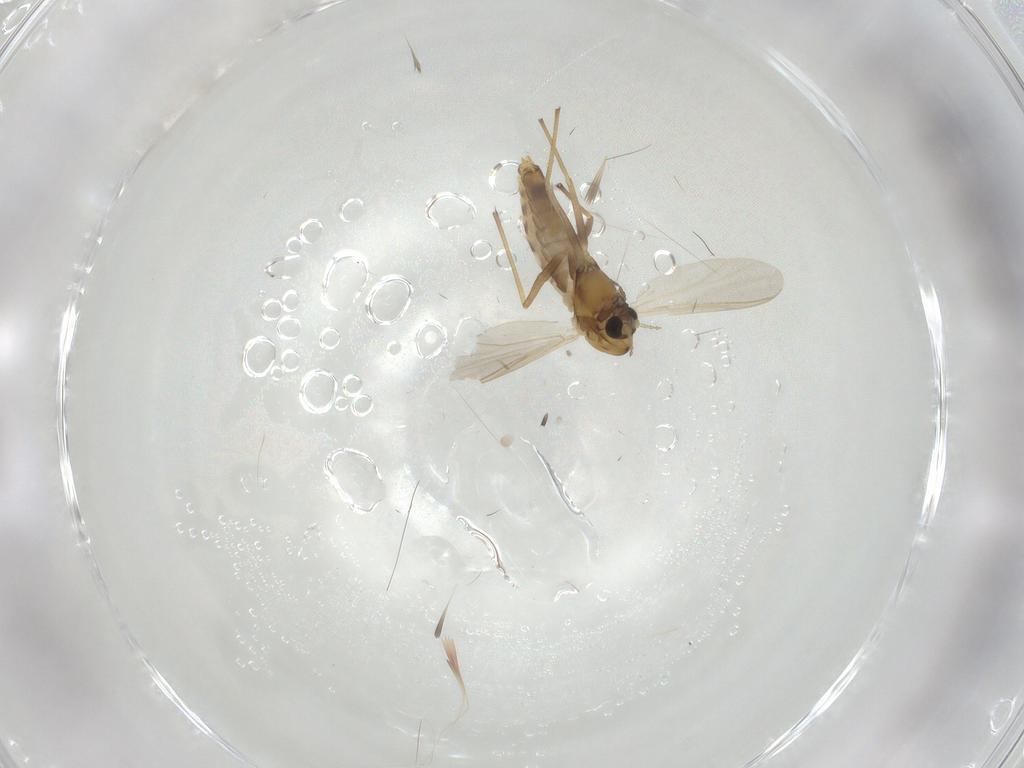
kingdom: Animalia
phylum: Arthropoda
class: Insecta
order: Diptera
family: Chironomidae
